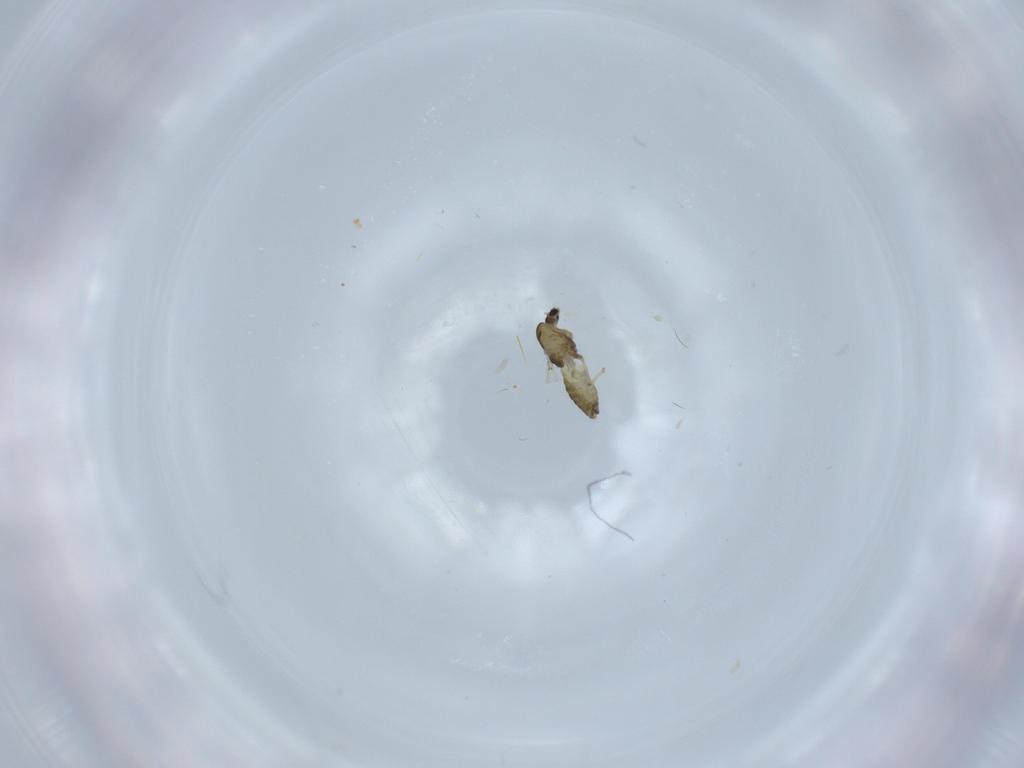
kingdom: Animalia
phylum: Arthropoda
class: Insecta
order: Diptera
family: Chironomidae
